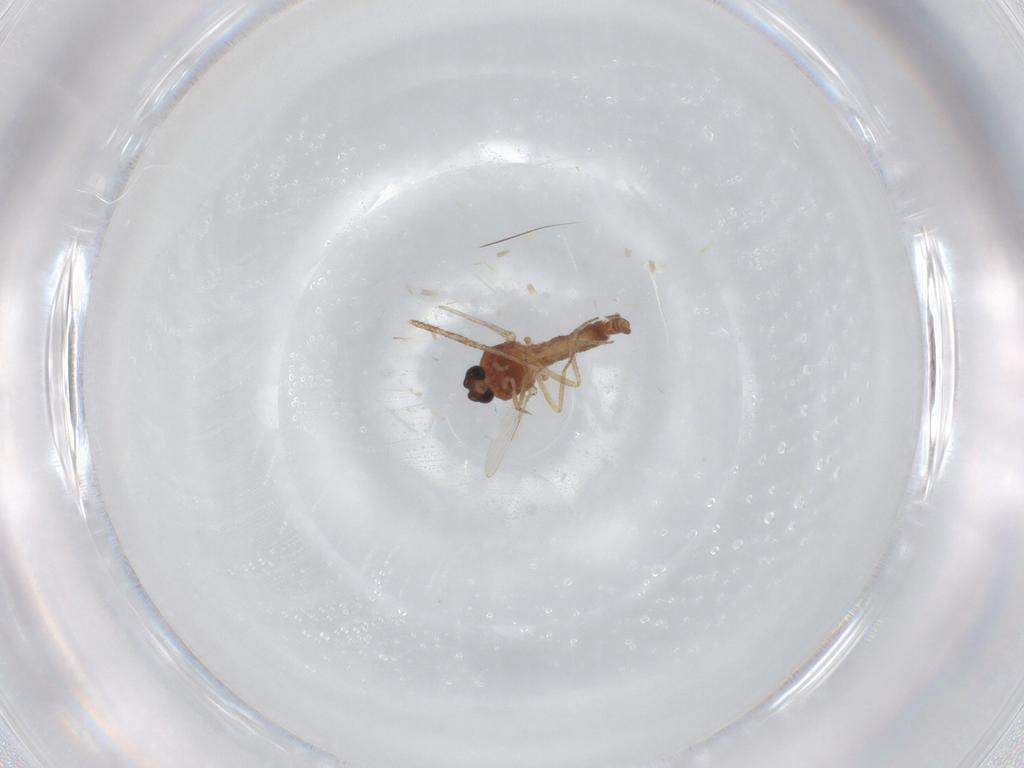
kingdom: Animalia
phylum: Arthropoda
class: Insecta
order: Diptera
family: Ceratopogonidae
